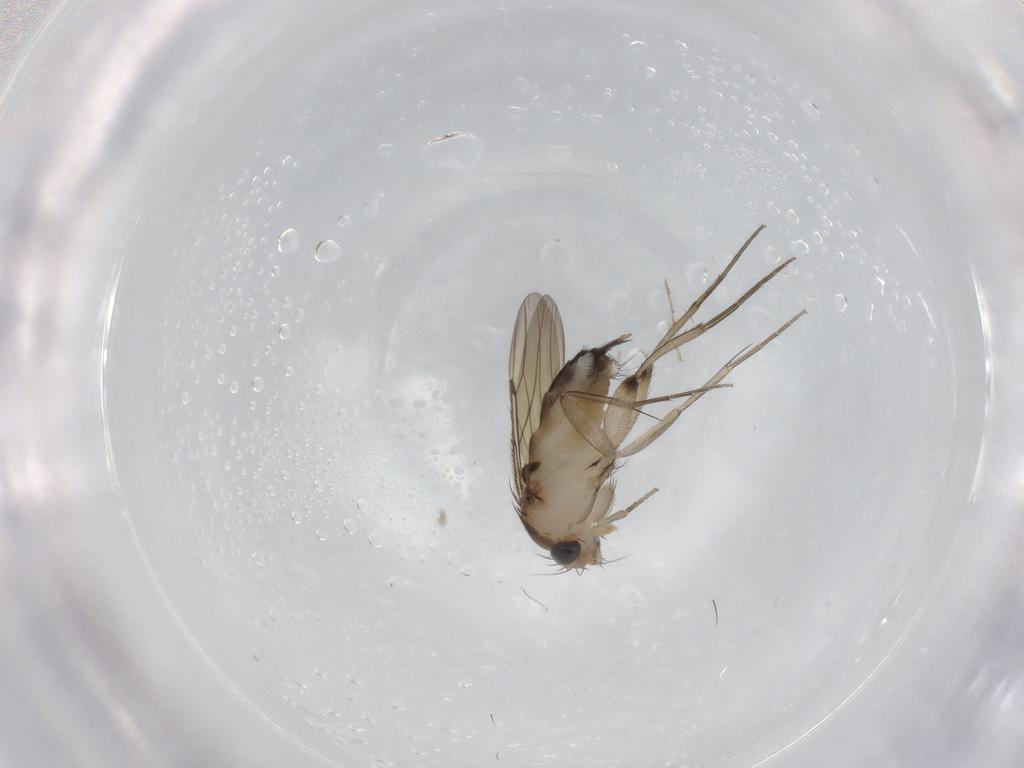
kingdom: Animalia
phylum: Arthropoda
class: Insecta
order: Diptera
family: Phoridae
